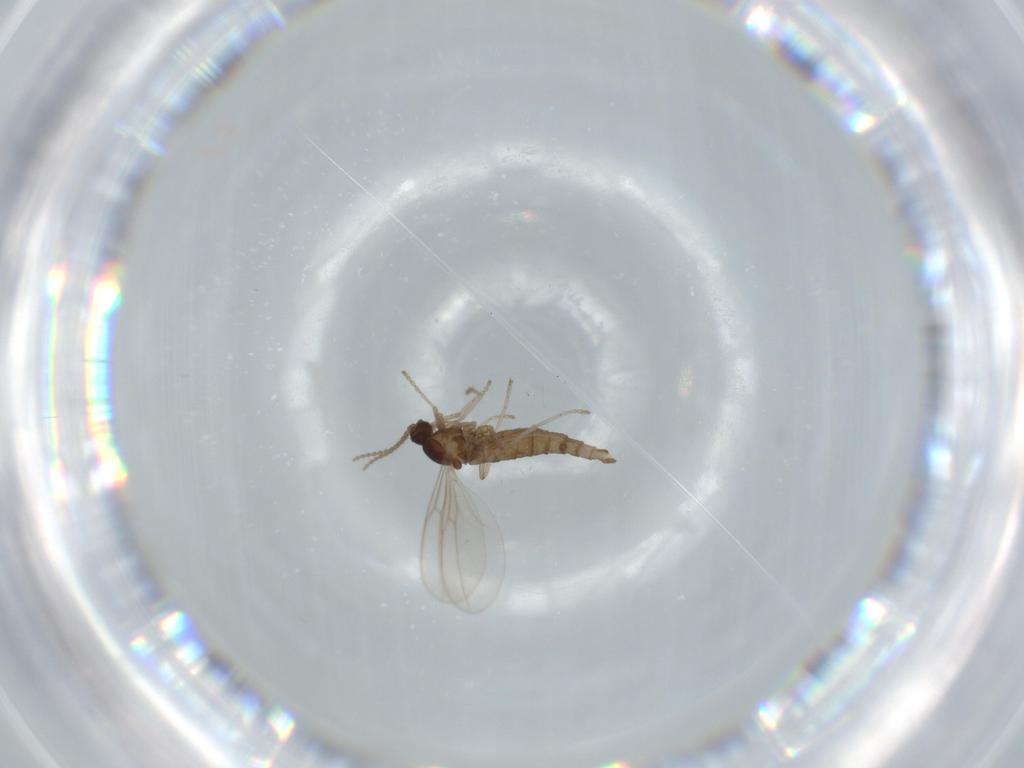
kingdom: Animalia
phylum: Arthropoda
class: Insecta
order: Diptera
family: Cecidomyiidae
